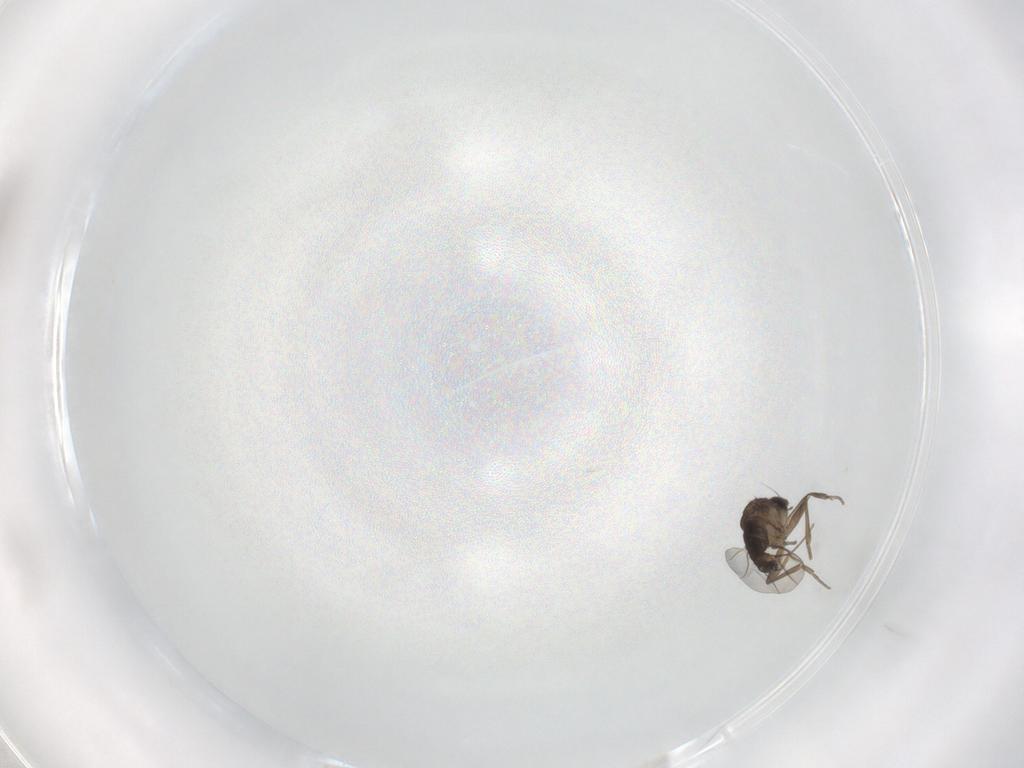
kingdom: Animalia
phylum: Arthropoda
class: Insecta
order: Diptera
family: Phoridae
